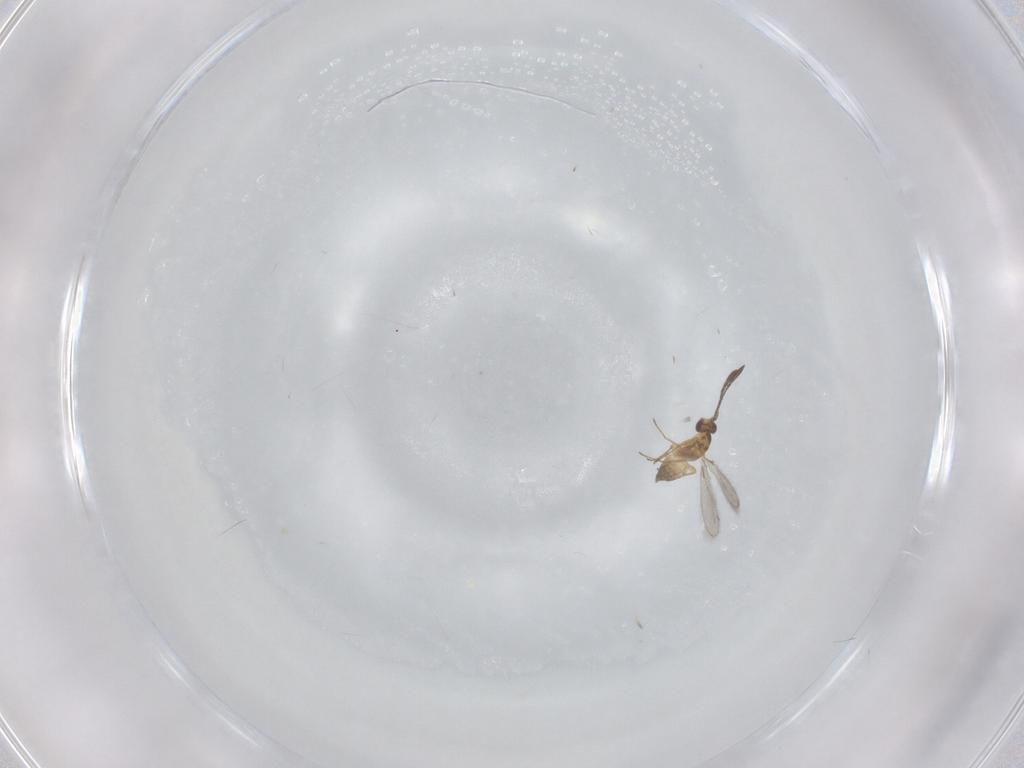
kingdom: Animalia
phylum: Arthropoda
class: Insecta
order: Hymenoptera
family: Mymaridae
